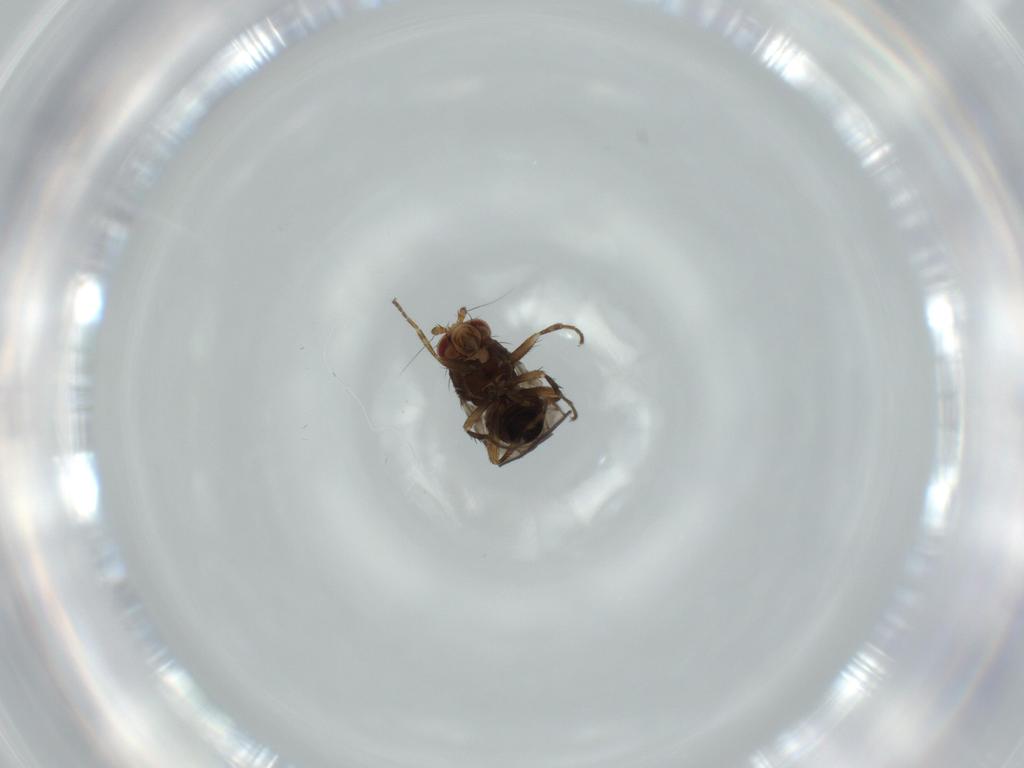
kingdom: Animalia
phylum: Arthropoda
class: Insecta
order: Diptera
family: Sphaeroceridae
